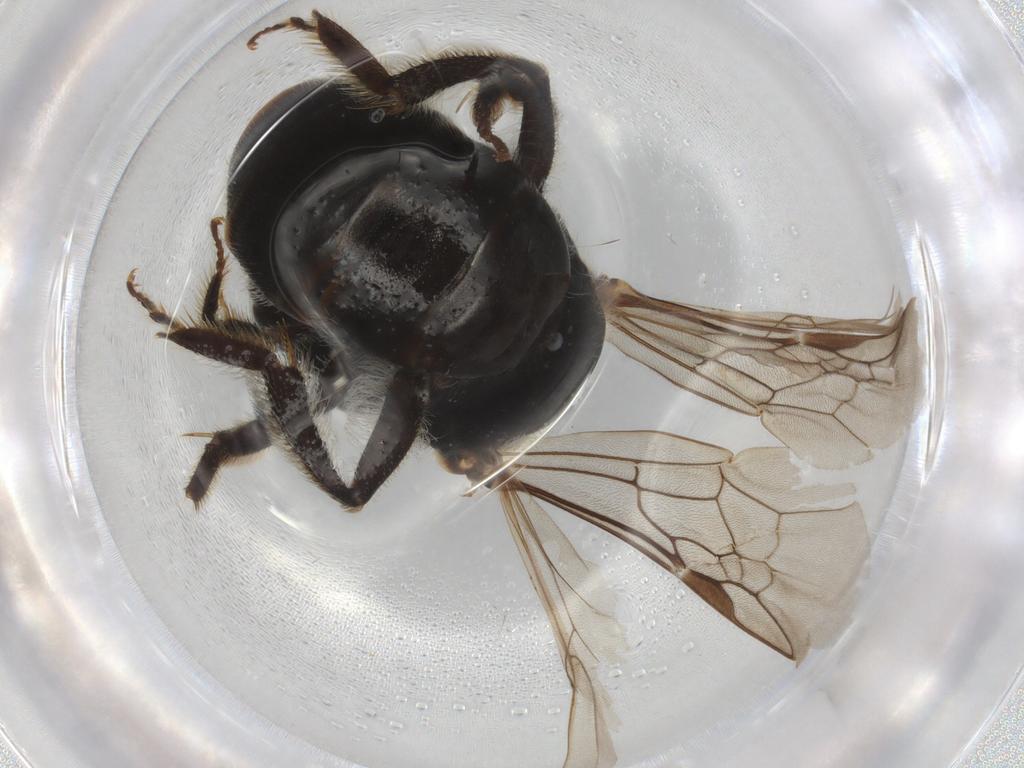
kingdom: Animalia
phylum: Arthropoda
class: Insecta
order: Hymenoptera
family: Halictidae
